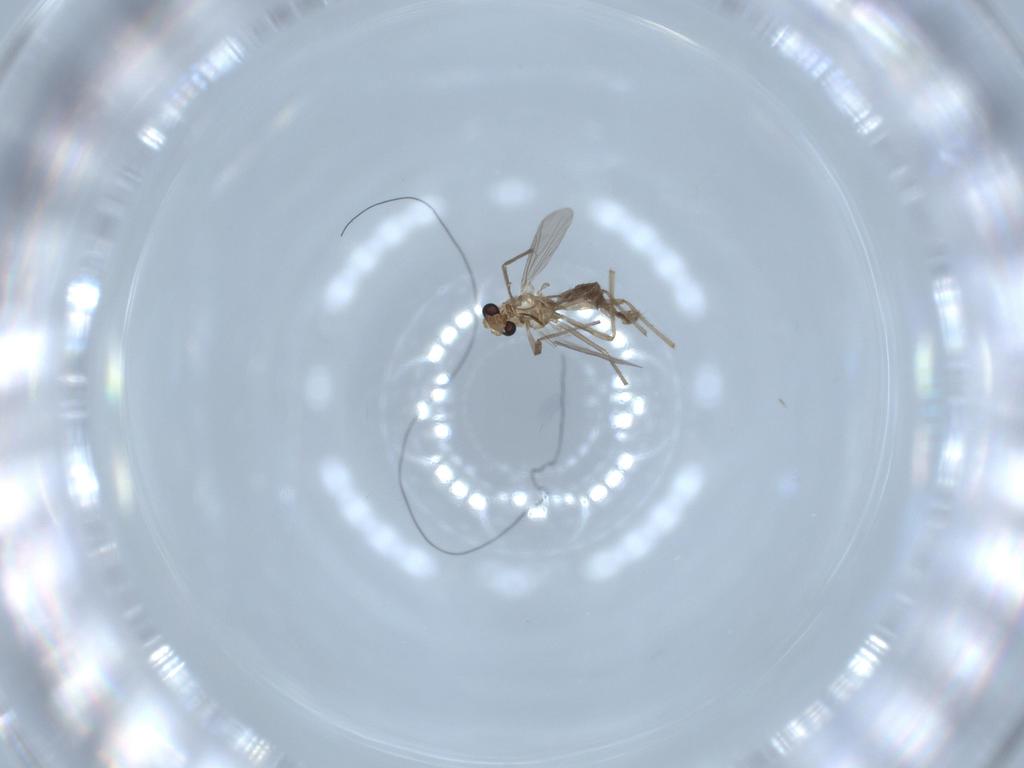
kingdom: Animalia
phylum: Arthropoda
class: Insecta
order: Diptera
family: Chironomidae
